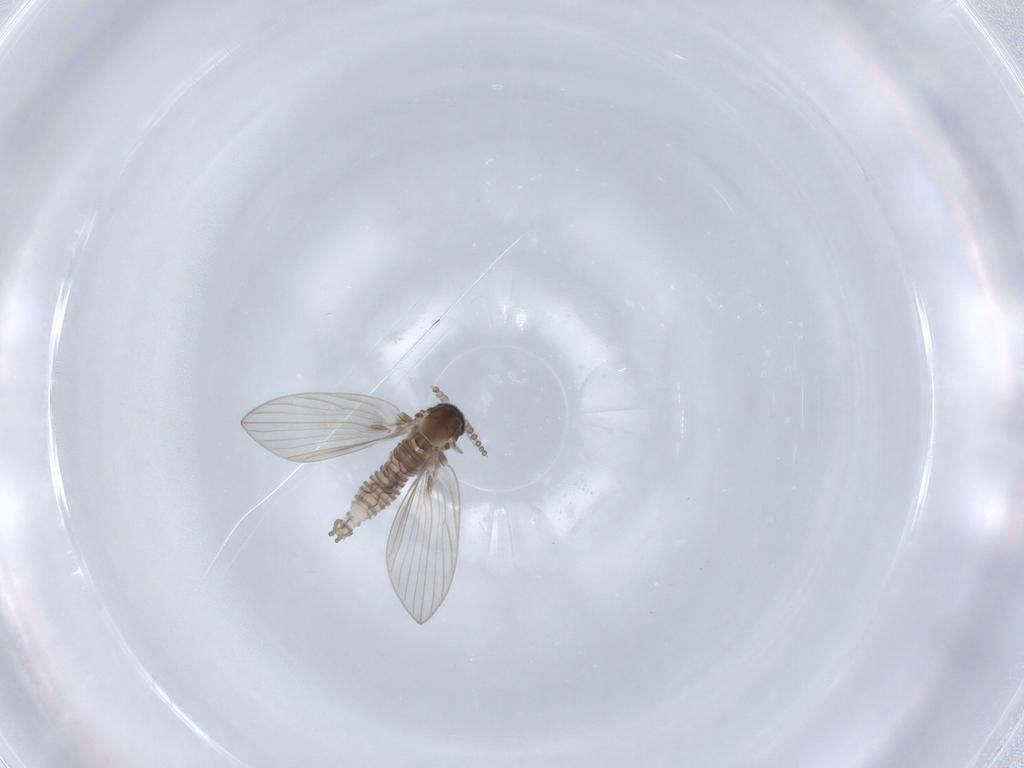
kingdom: Animalia
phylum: Arthropoda
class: Insecta
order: Diptera
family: Psychodidae
